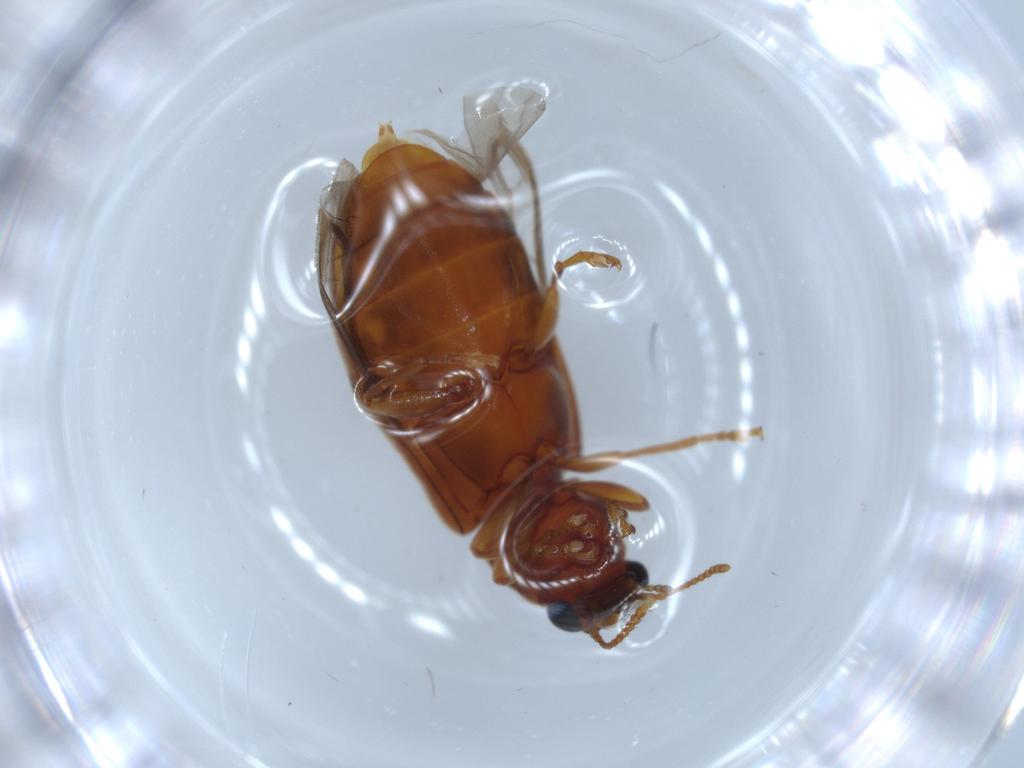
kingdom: Animalia
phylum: Arthropoda
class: Insecta
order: Coleoptera
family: Mycteridae
